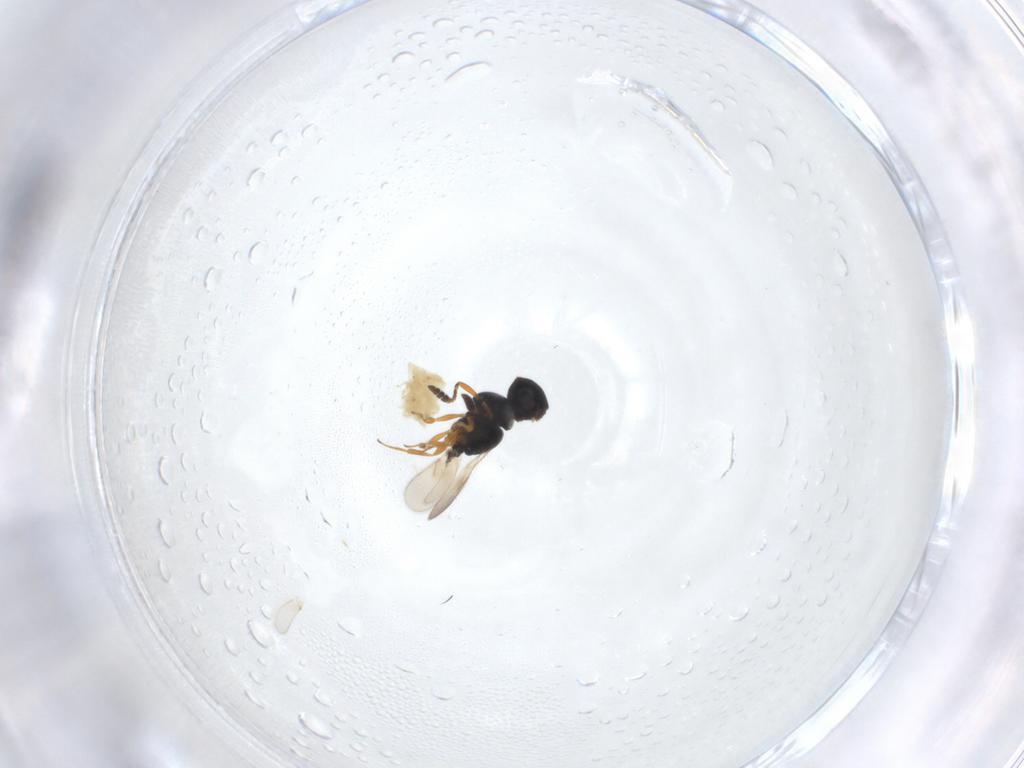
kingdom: Animalia
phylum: Arthropoda
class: Insecta
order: Hymenoptera
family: Scelionidae
